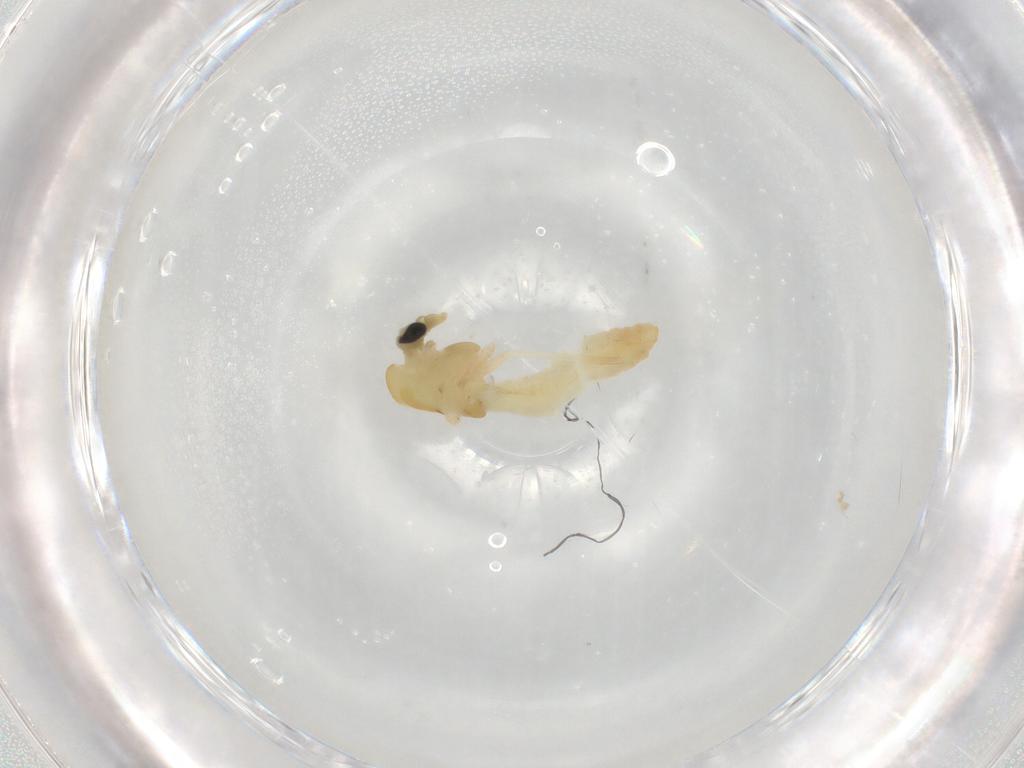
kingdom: Animalia
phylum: Arthropoda
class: Insecta
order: Diptera
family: Chironomidae
